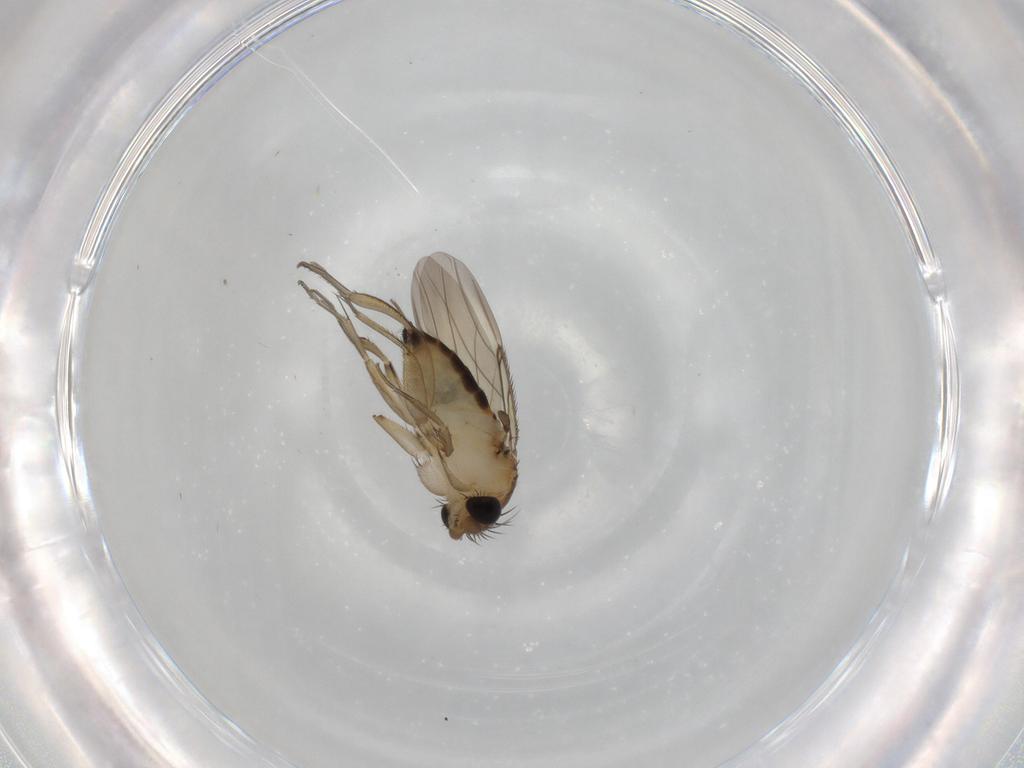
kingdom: Animalia
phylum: Arthropoda
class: Insecta
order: Diptera
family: Phoridae
